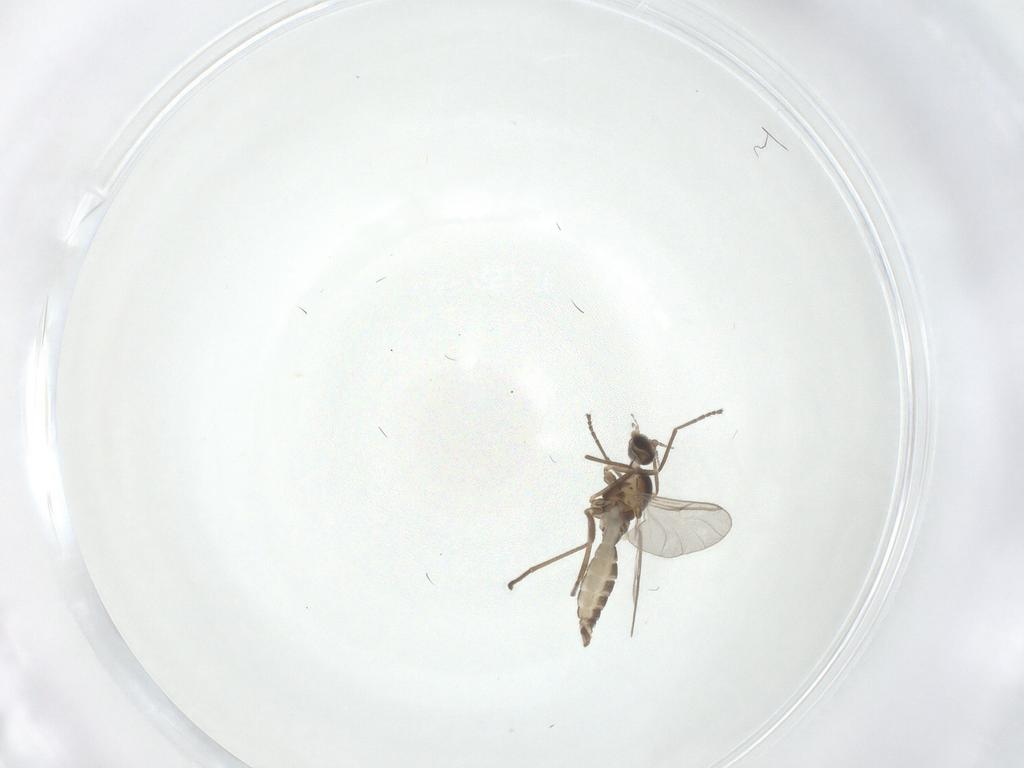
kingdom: Animalia
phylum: Arthropoda
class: Insecta
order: Diptera
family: Cecidomyiidae
